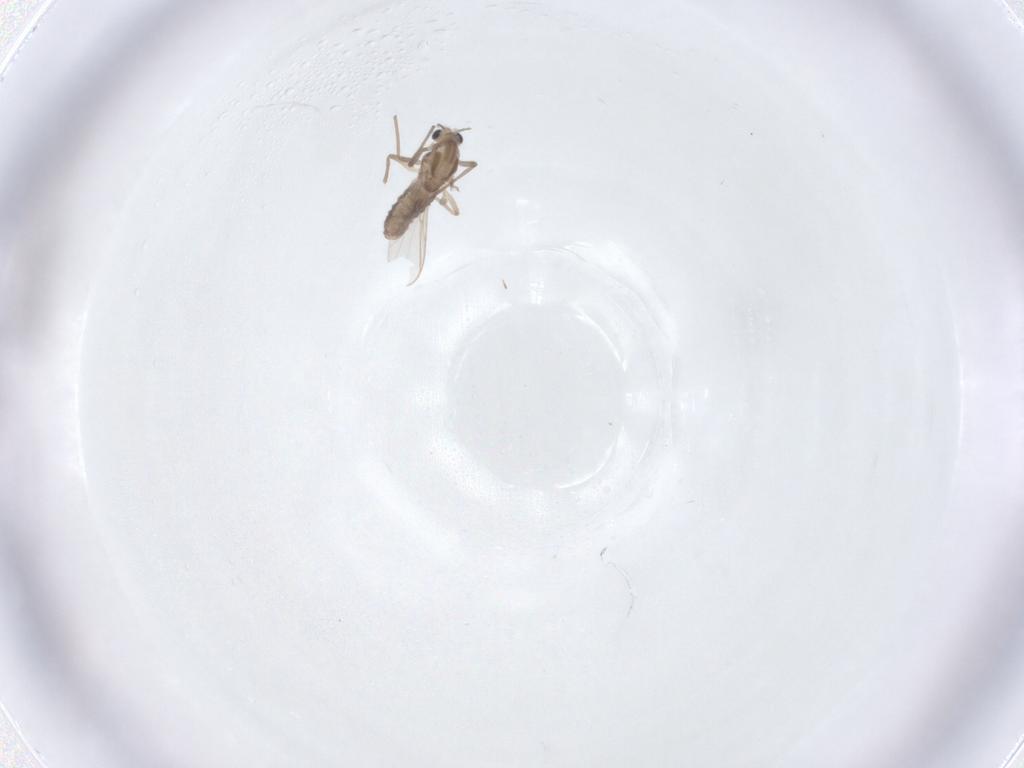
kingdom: Animalia
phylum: Arthropoda
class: Insecta
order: Diptera
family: Chironomidae
